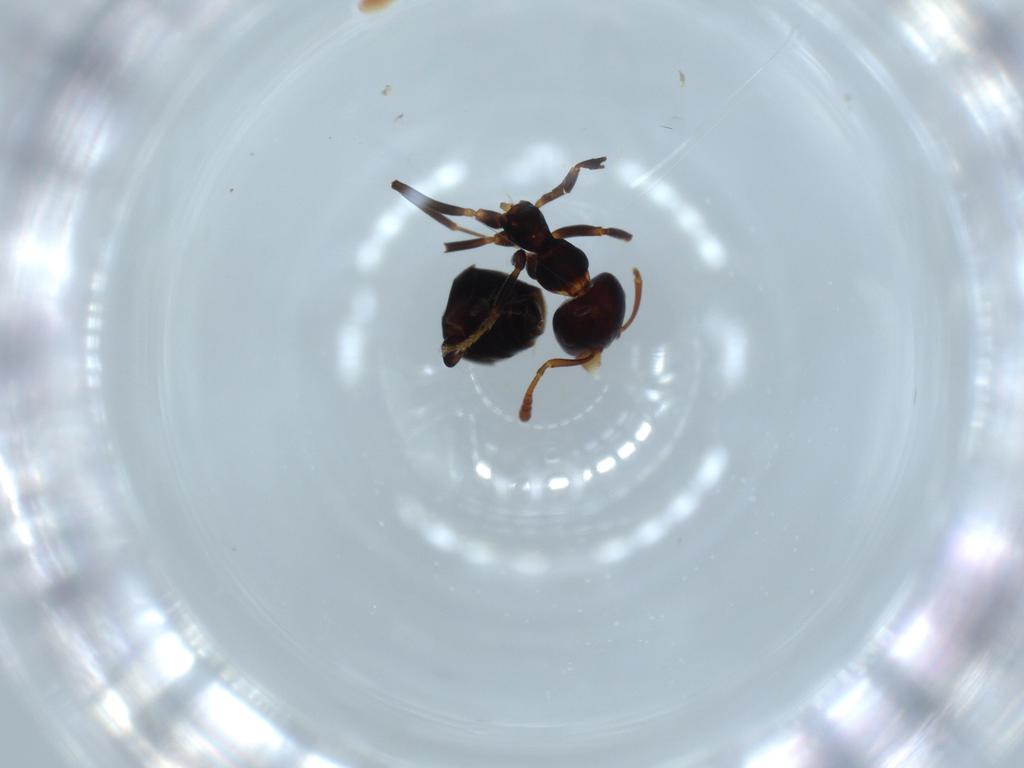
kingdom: Animalia
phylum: Arthropoda
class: Insecta
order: Hymenoptera
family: Formicidae
